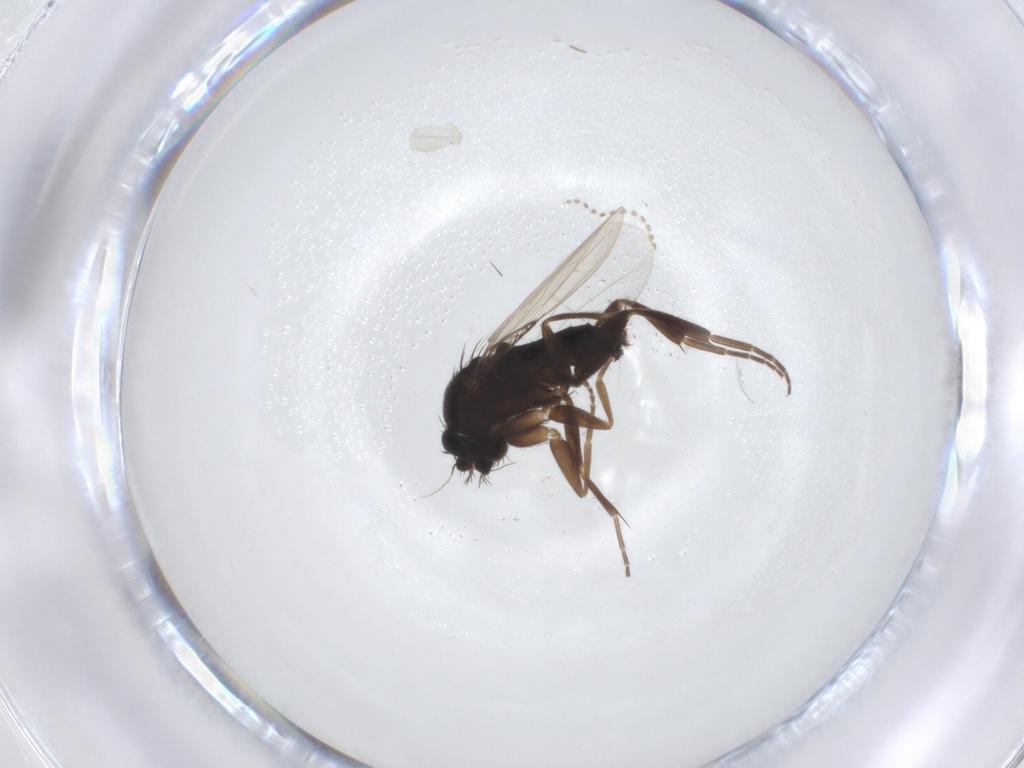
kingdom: Animalia
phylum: Arthropoda
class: Insecta
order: Diptera
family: Phoridae
